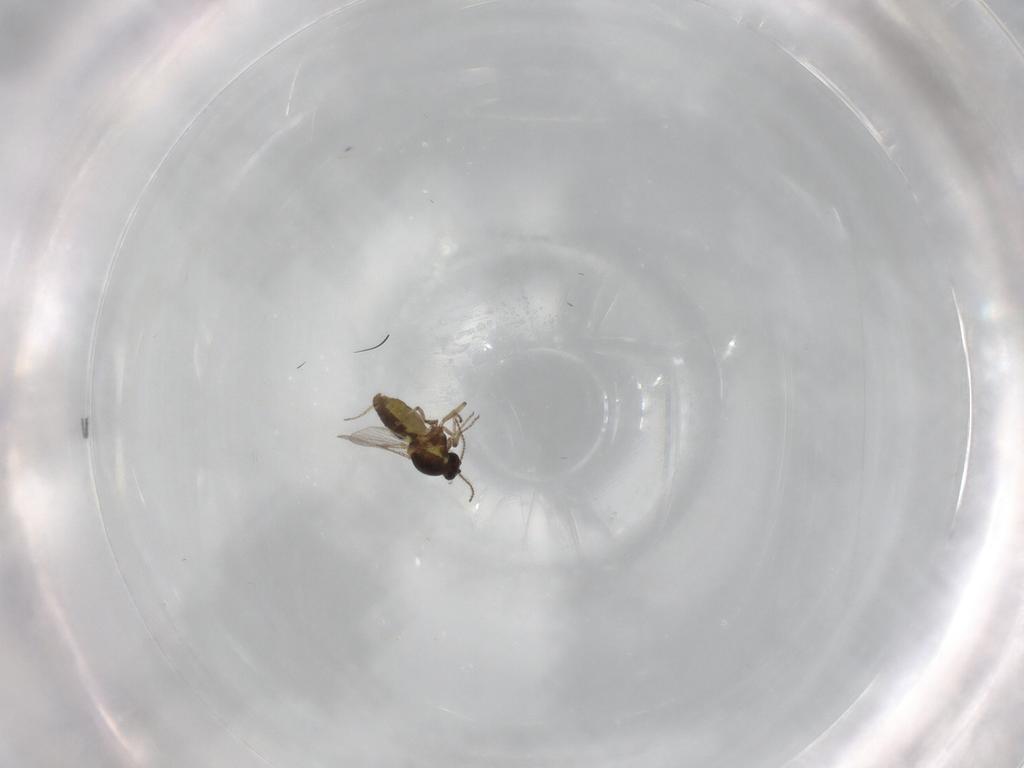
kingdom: Animalia
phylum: Arthropoda
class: Insecta
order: Diptera
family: Ceratopogonidae
